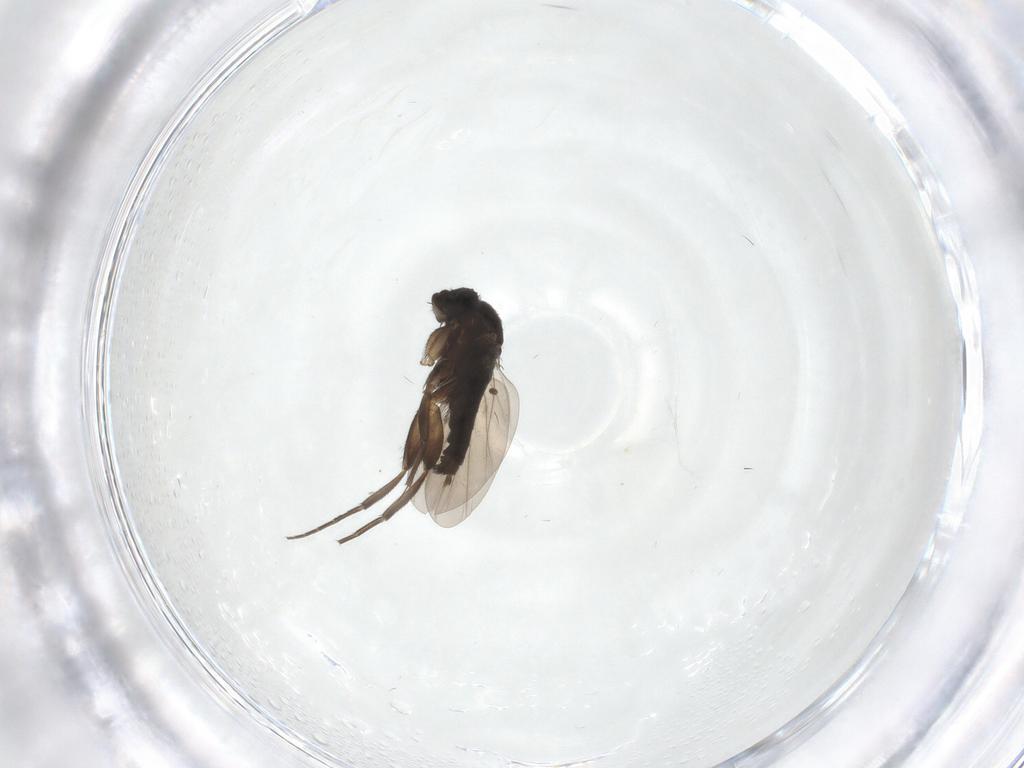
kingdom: Animalia
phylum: Arthropoda
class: Insecta
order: Diptera
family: Sciaridae
